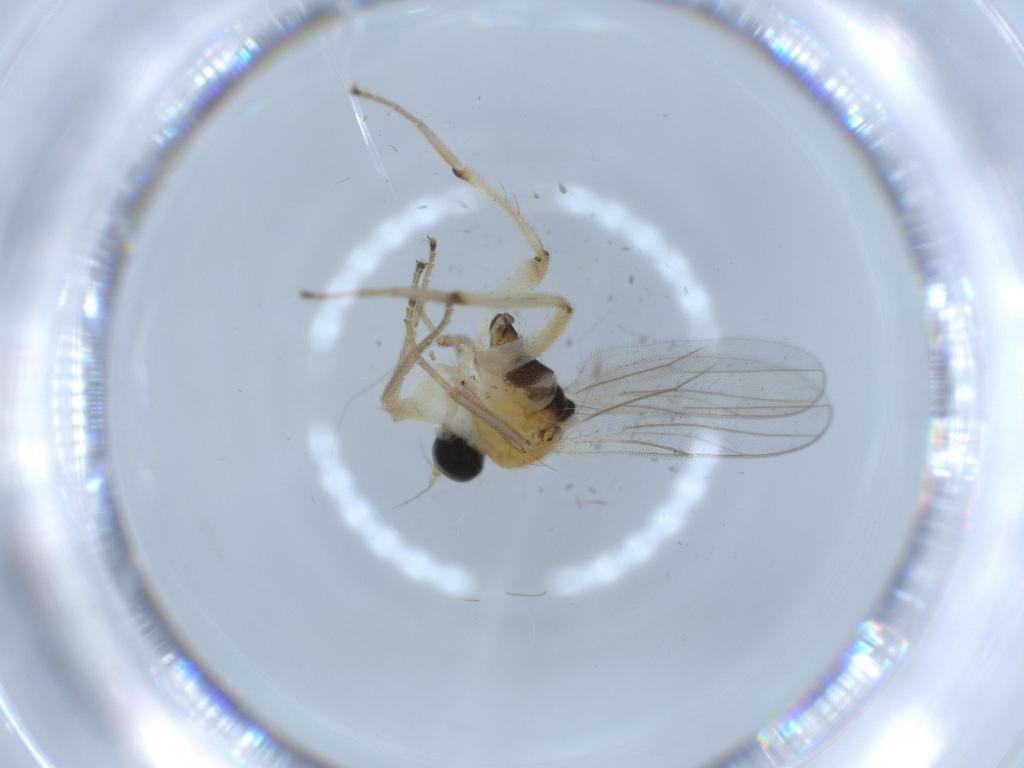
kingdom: Animalia
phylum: Arthropoda
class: Insecta
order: Diptera
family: Hybotidae
